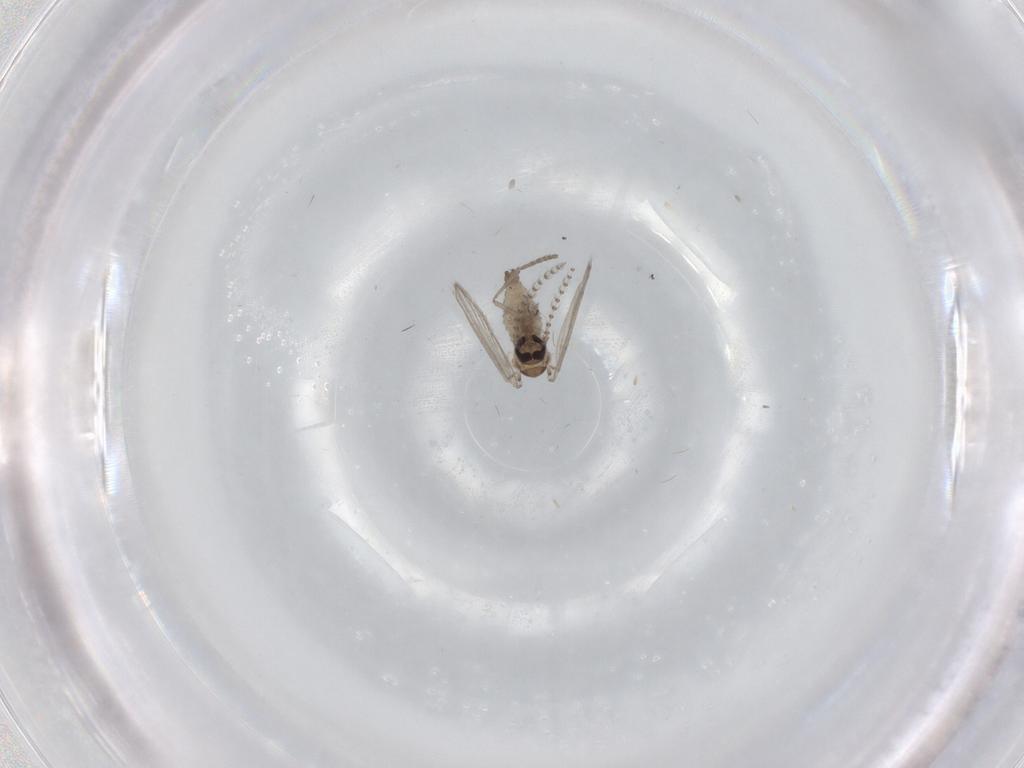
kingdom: Animalia
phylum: Arthropoda
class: Insecta
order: Diptera
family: Psychodidae
